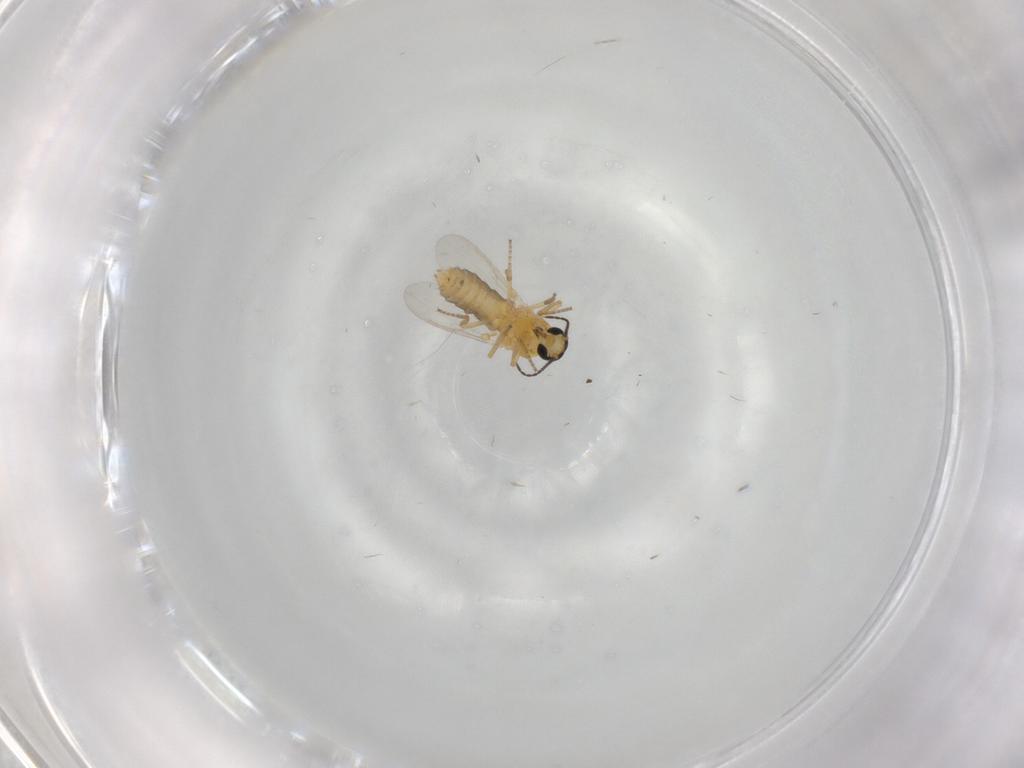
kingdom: Animalia
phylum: Arthropoda
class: Insecta
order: Diptera
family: Ceratopogonidae
